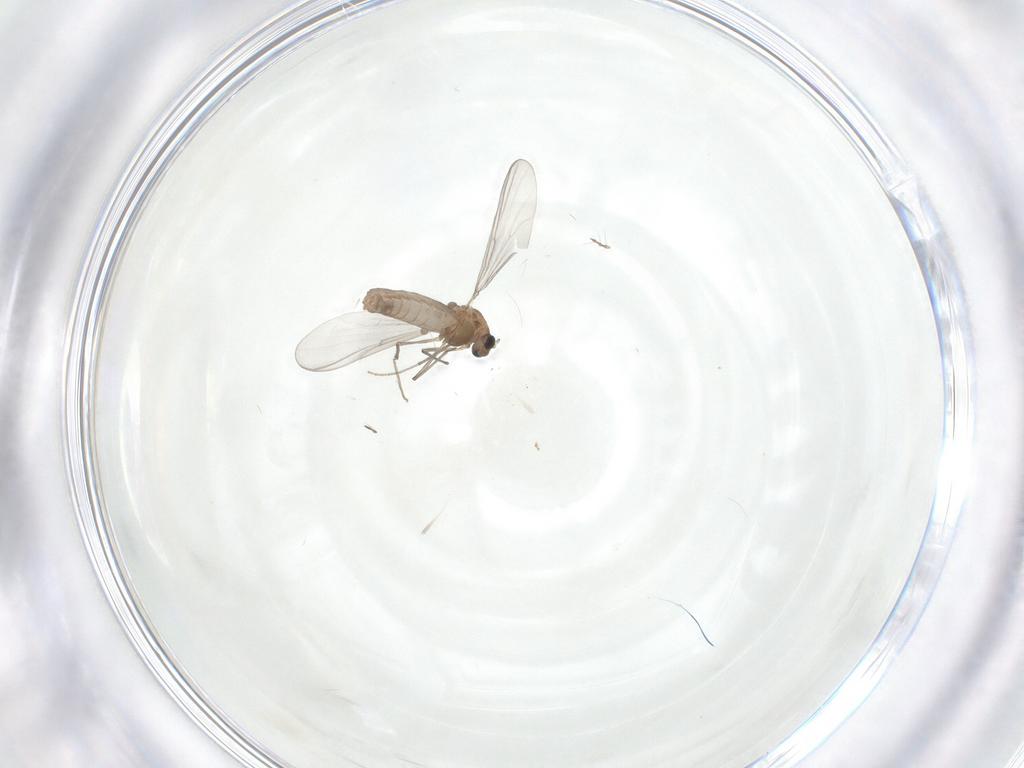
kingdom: Animalia
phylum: Arthropoda
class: Insecta
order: Diptera
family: Chironomidae
